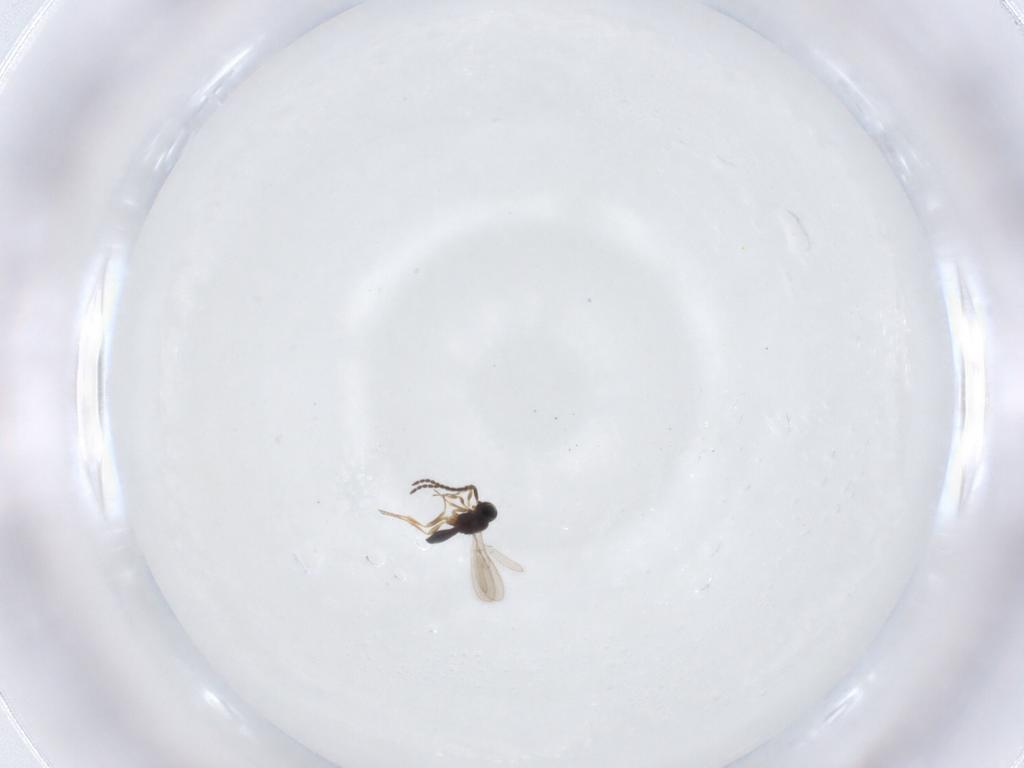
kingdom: Animalia
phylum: Arthropoda
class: Insecta
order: Hymenoptera
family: Scelionidae
